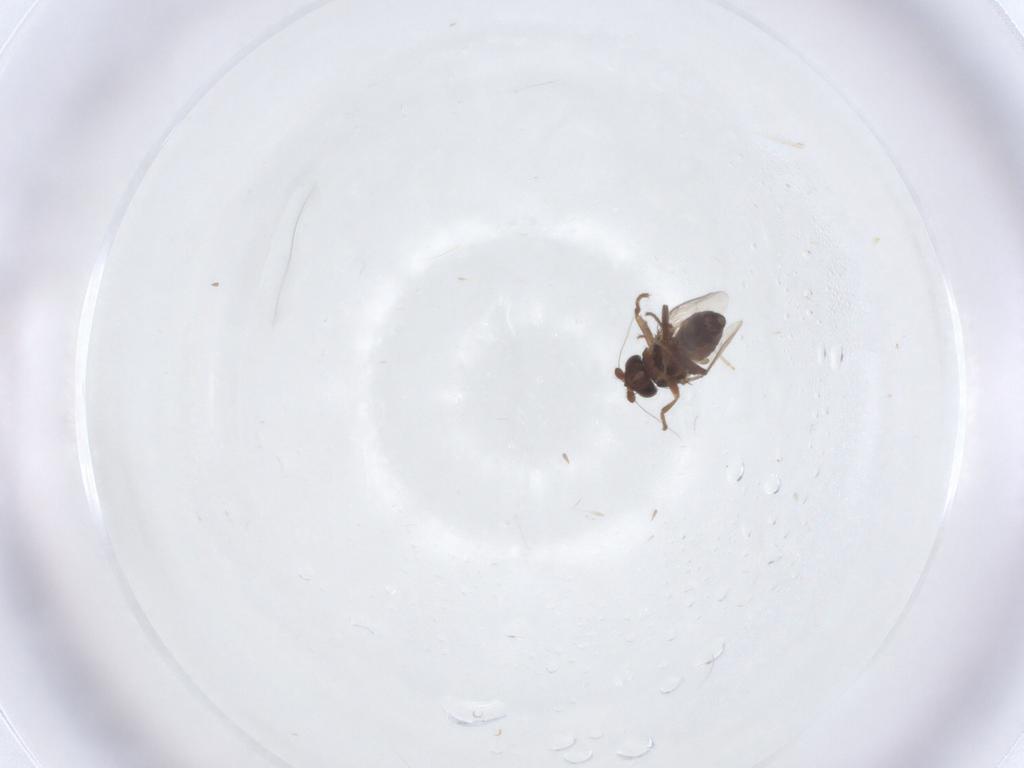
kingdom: Animalia
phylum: Arthropoda
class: Insecta
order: Diptera
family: Sphaeroceridae
